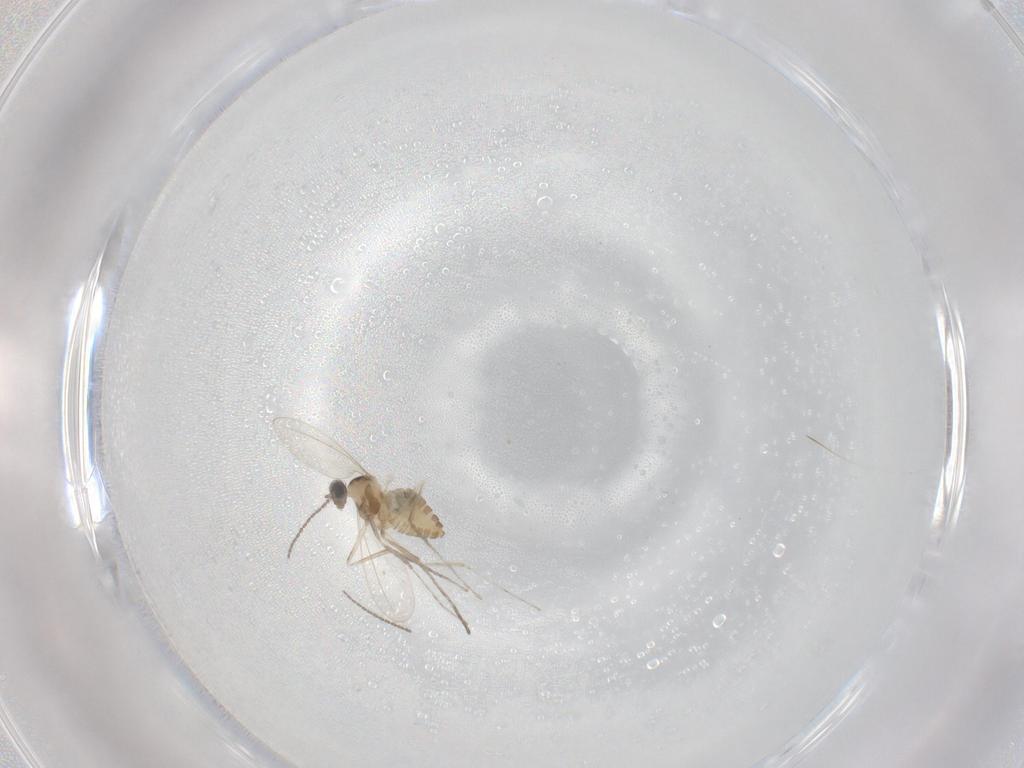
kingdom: Animalia
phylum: Arthropoda
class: Insecta
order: Diptera
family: Cecidomyiidae
